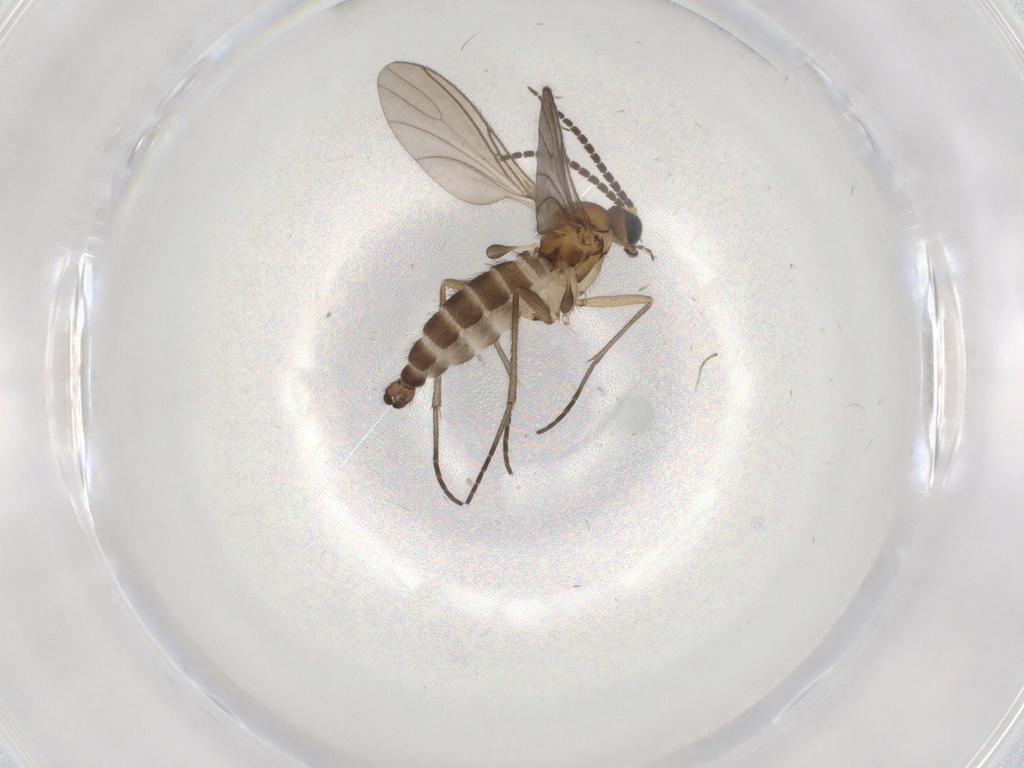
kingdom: Animalia
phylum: Arthropoda
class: Insecta
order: Diptera
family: Sciaridae
